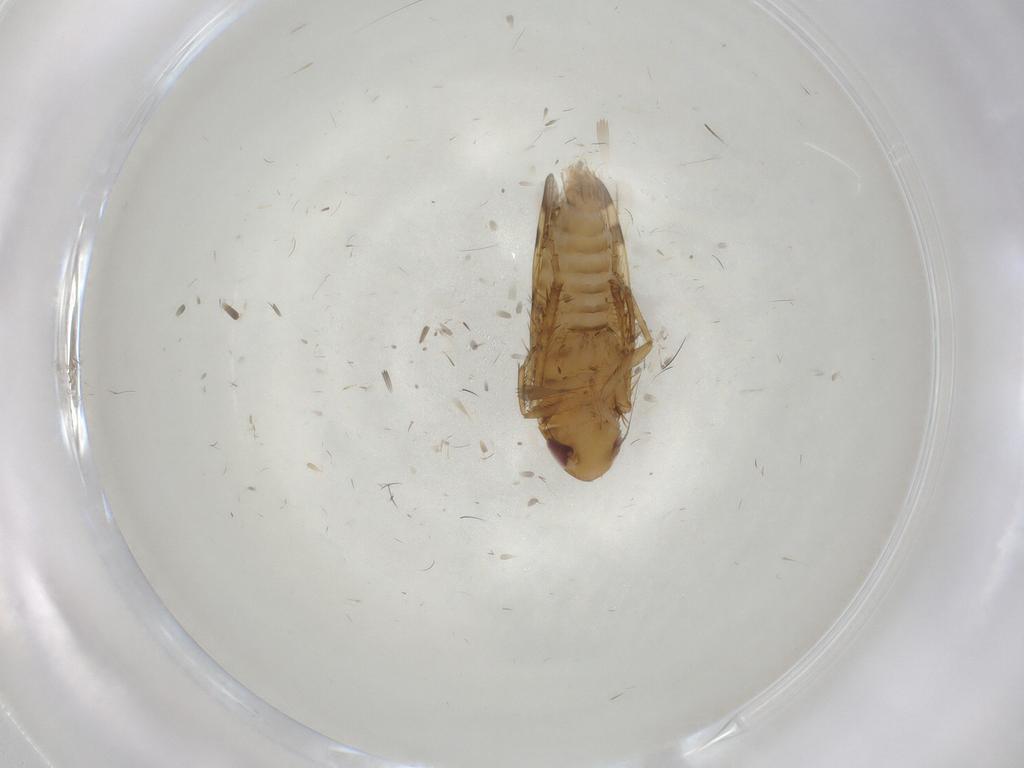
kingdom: Animalia
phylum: Arthropoda
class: Insecta
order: Hemiptera
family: Cicadellidae
